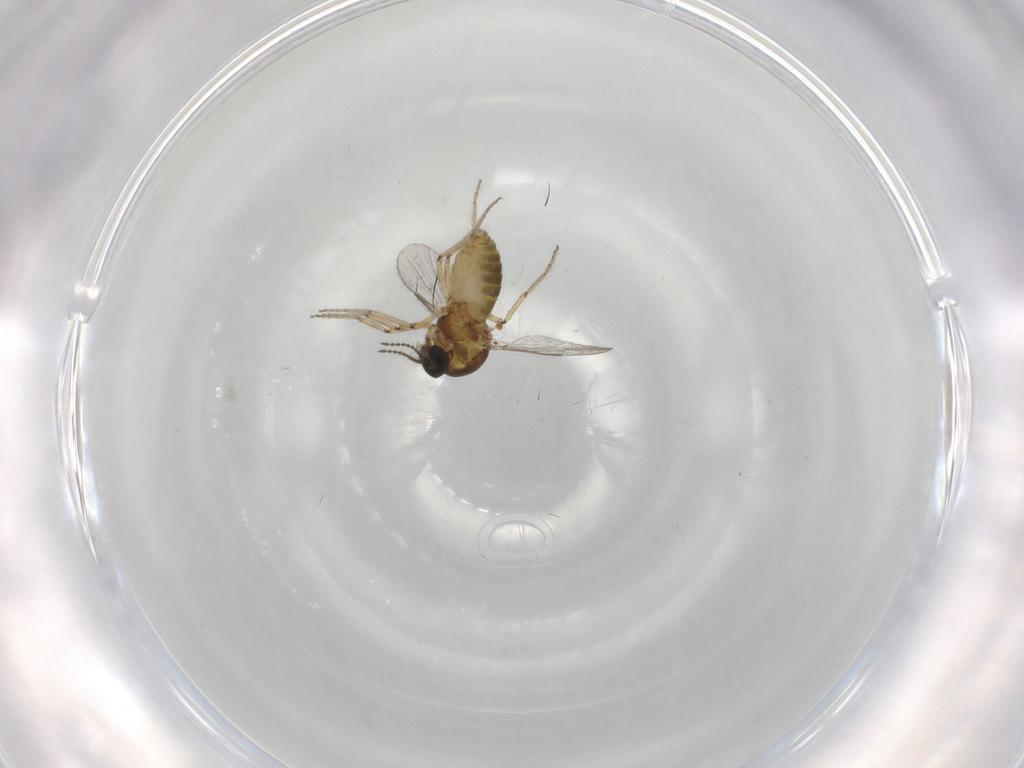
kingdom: Animalia
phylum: Arthropoda
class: Insecta
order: Diptera
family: Ceratopogonidae
